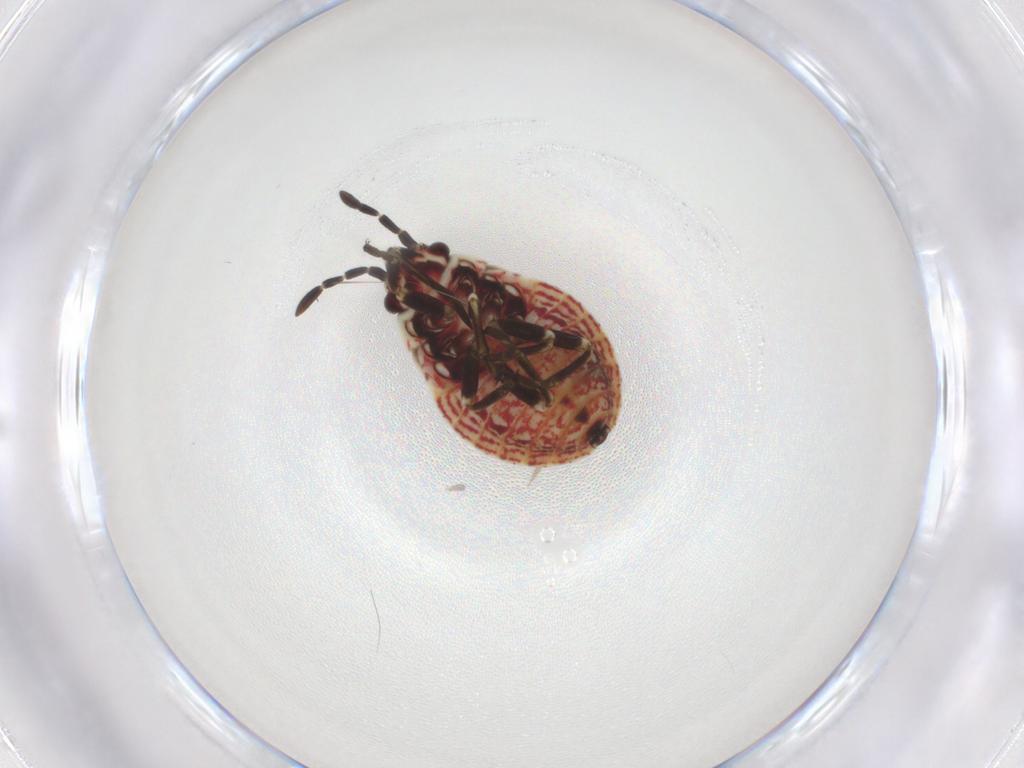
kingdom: Animalia
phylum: Arthropoda
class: Insecta
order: Hemiptera
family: Lygaeidae
